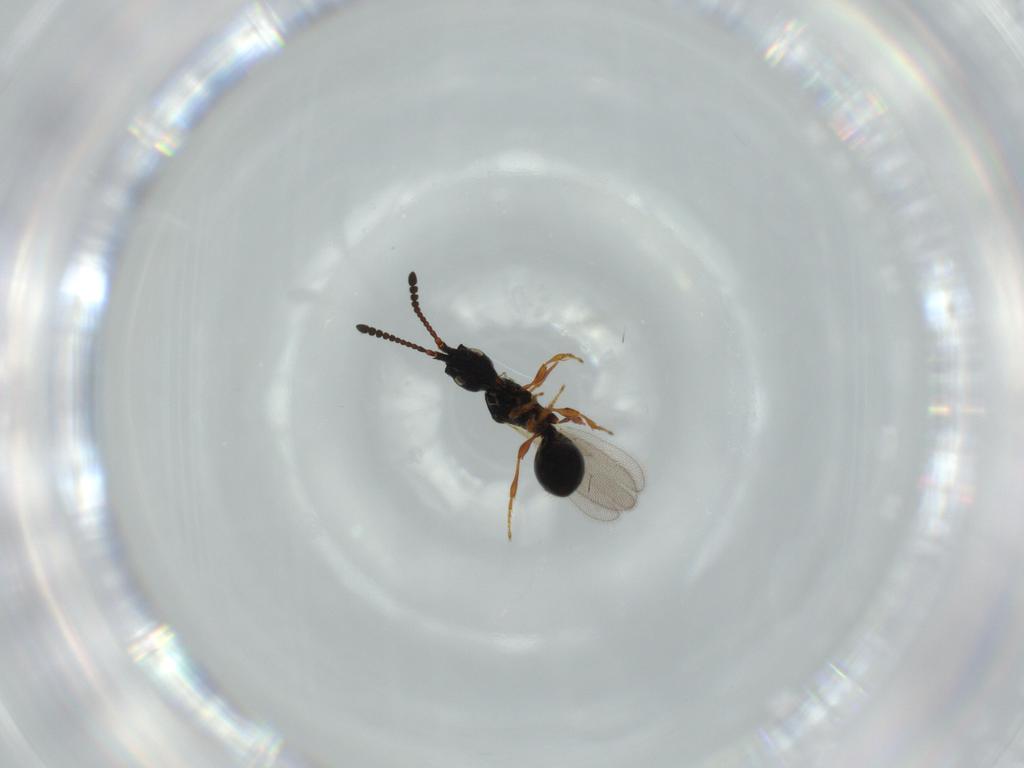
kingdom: Animalia
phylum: Arthropoda
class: Insecta
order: Hymenoptera
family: Diapriidae
